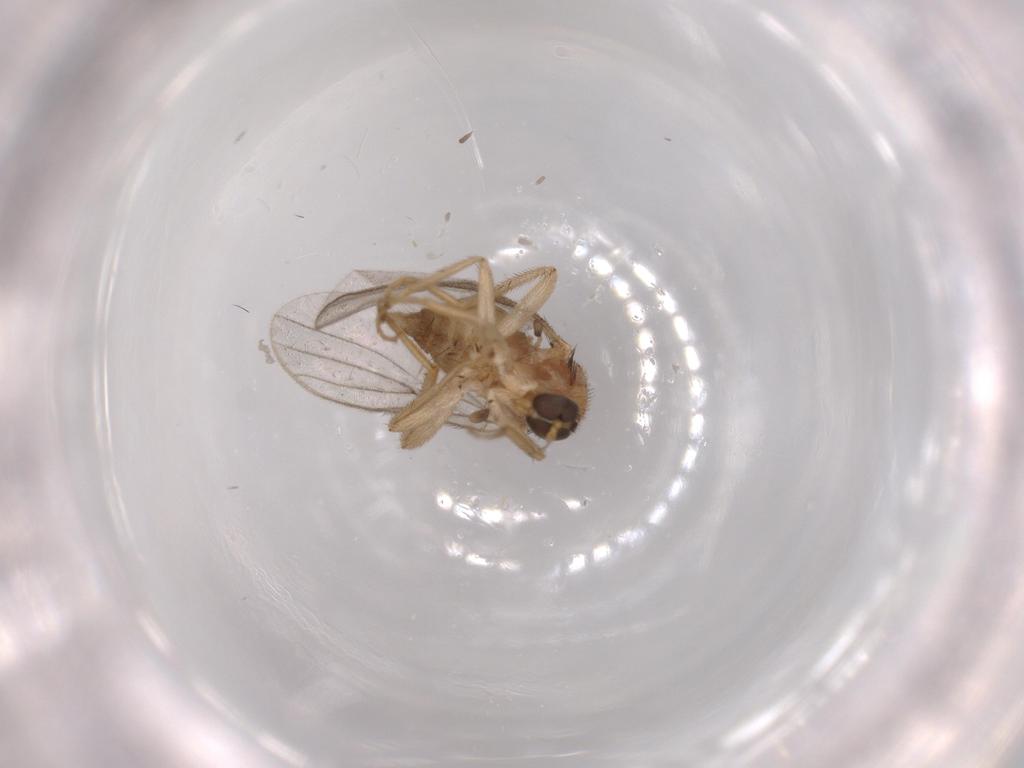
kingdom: Animalia
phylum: Arthropoda
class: Insecta
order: Diptera
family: Hybotidae
